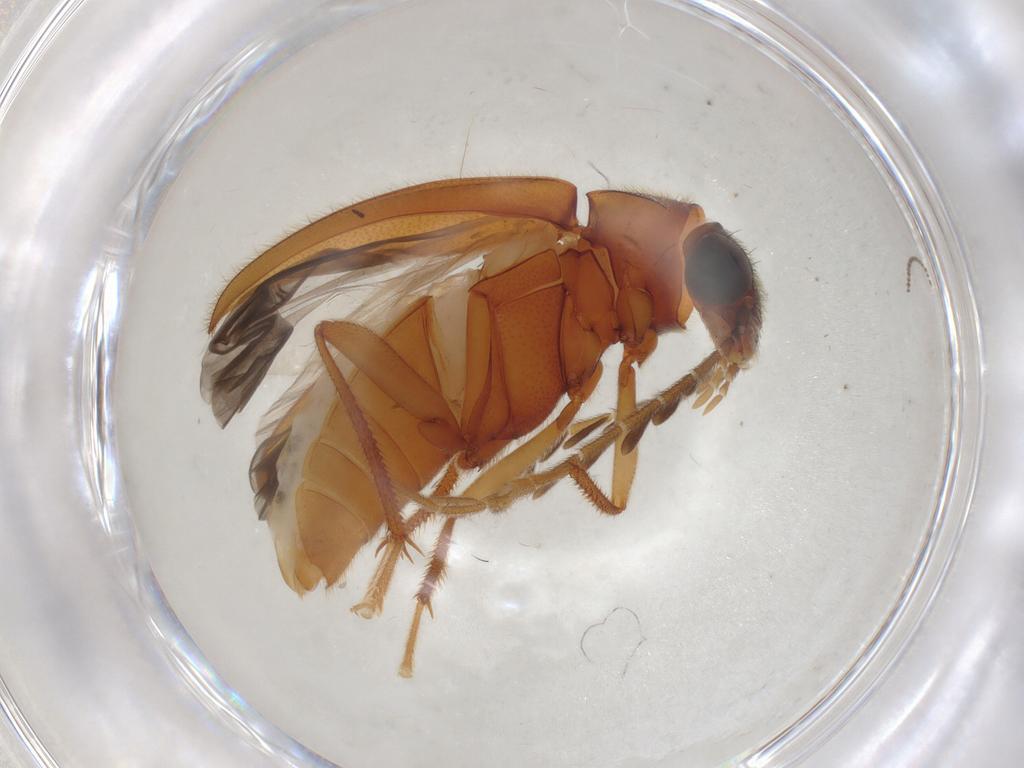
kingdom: Animalia
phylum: Arthropoda
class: Insecta
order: Coleoptera
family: Ptilodactylidae
